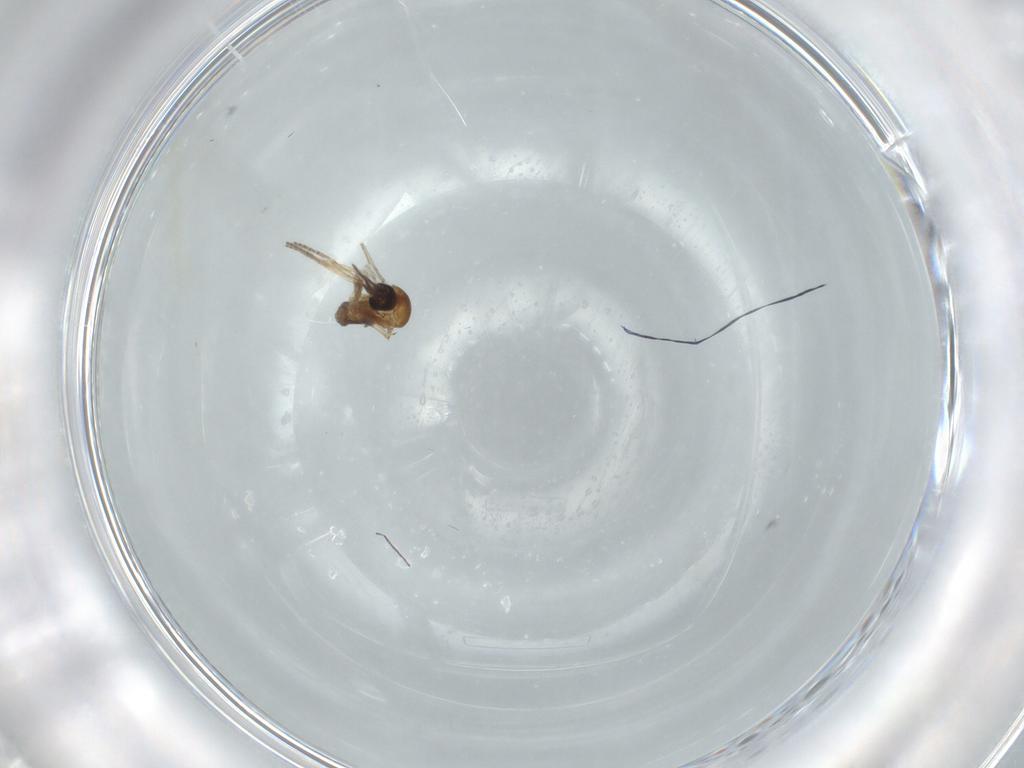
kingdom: Animalia
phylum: Arthropoda
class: Insecta
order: Diptera
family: Psychodidae
